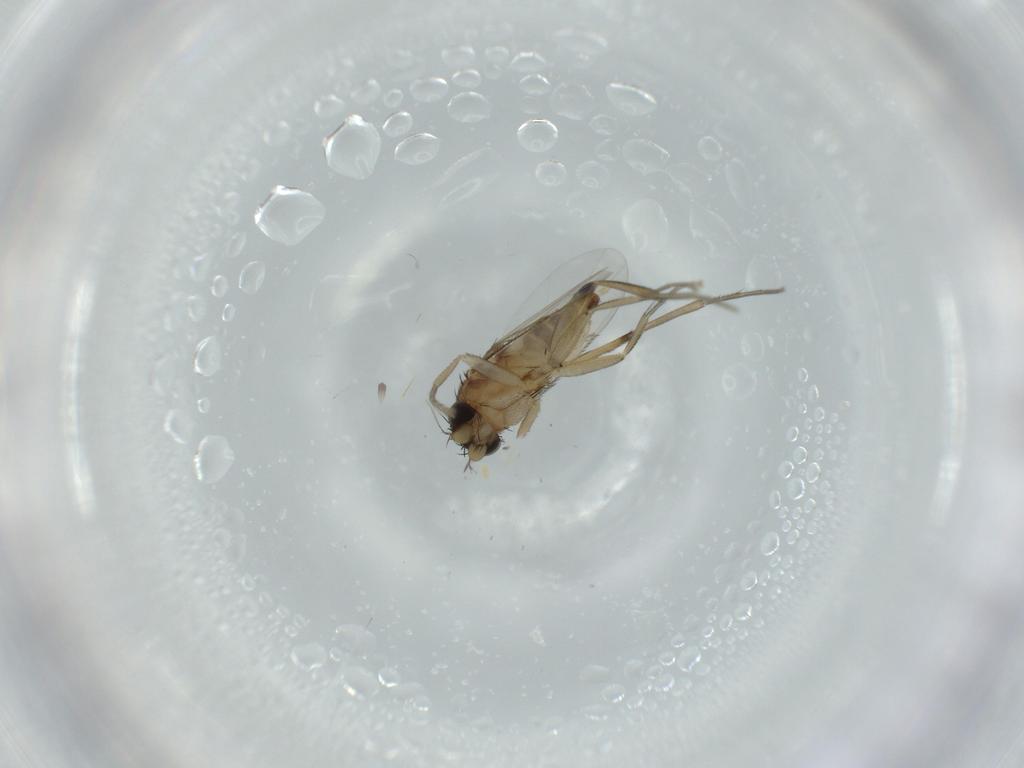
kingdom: Animalia
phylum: Arthropoda
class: Insecta
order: Diptera
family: Phoridae
